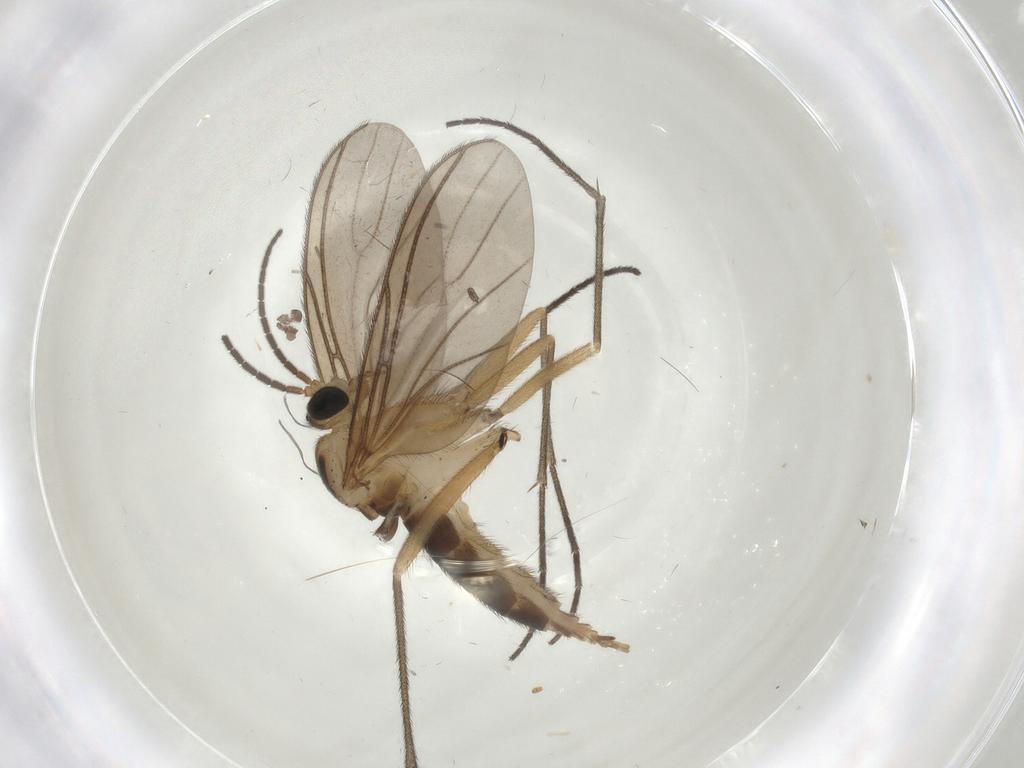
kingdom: Animalia
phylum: Arthropoda
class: Insecta
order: Diptera
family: Sciaridae
